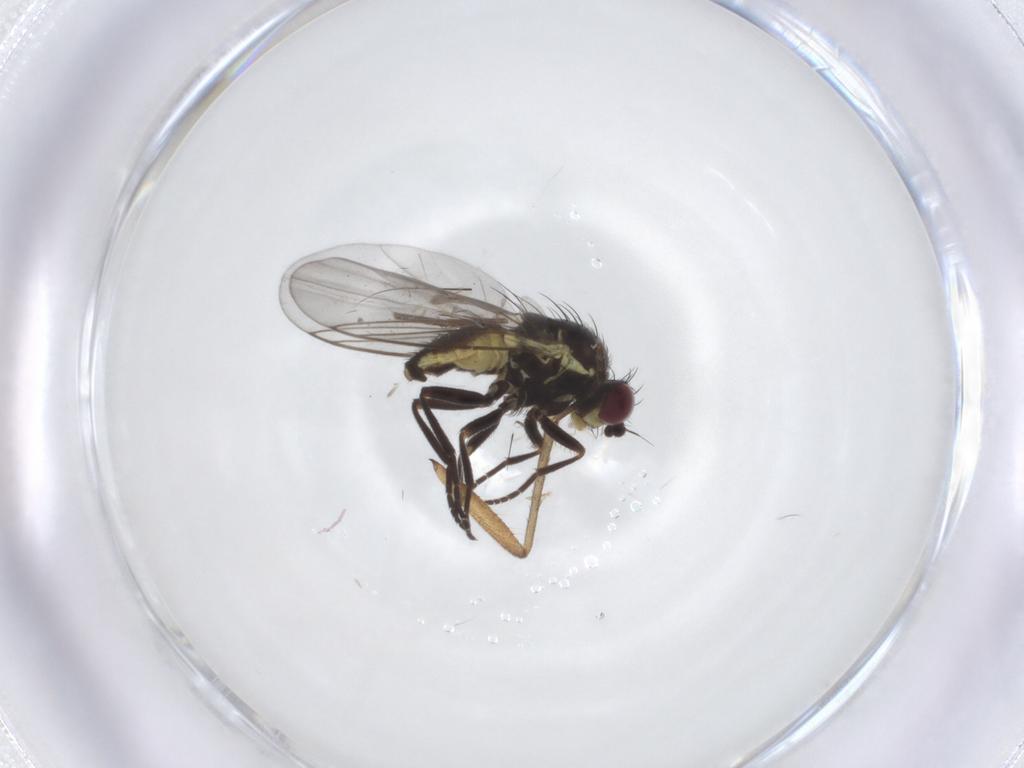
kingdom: Animalia
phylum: Arthropoda
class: Insecta
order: Diptera
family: Mycetophilidae
